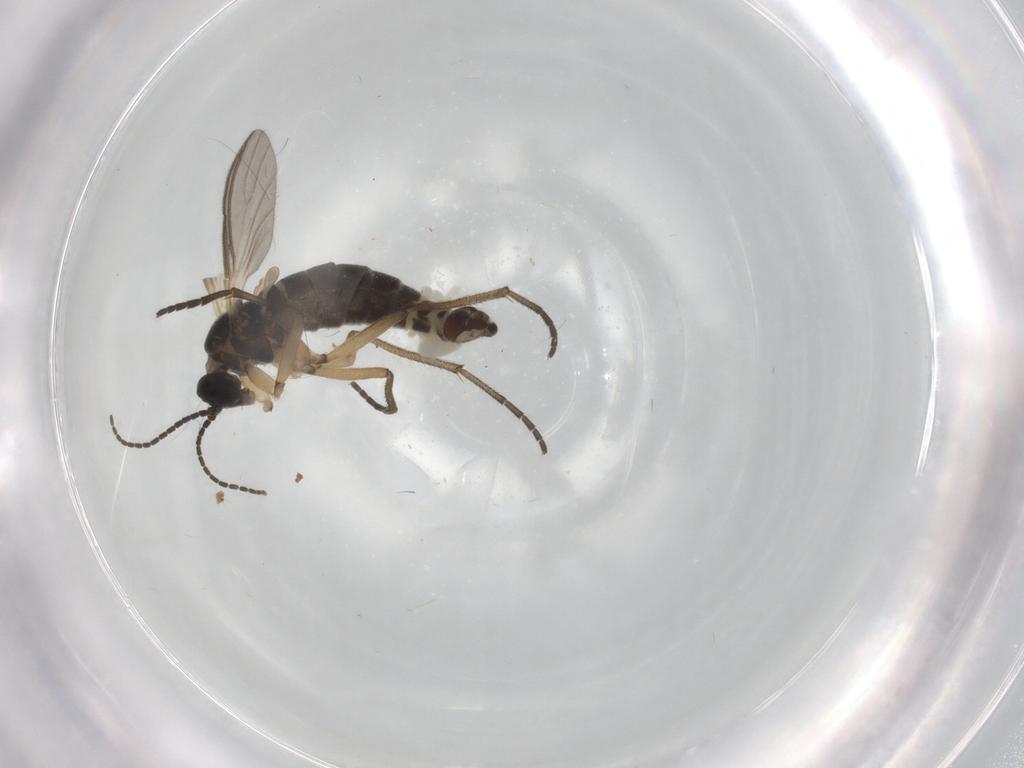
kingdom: Animalia
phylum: Arthropoda
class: Insecta
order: Diptera
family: Sciaridae
